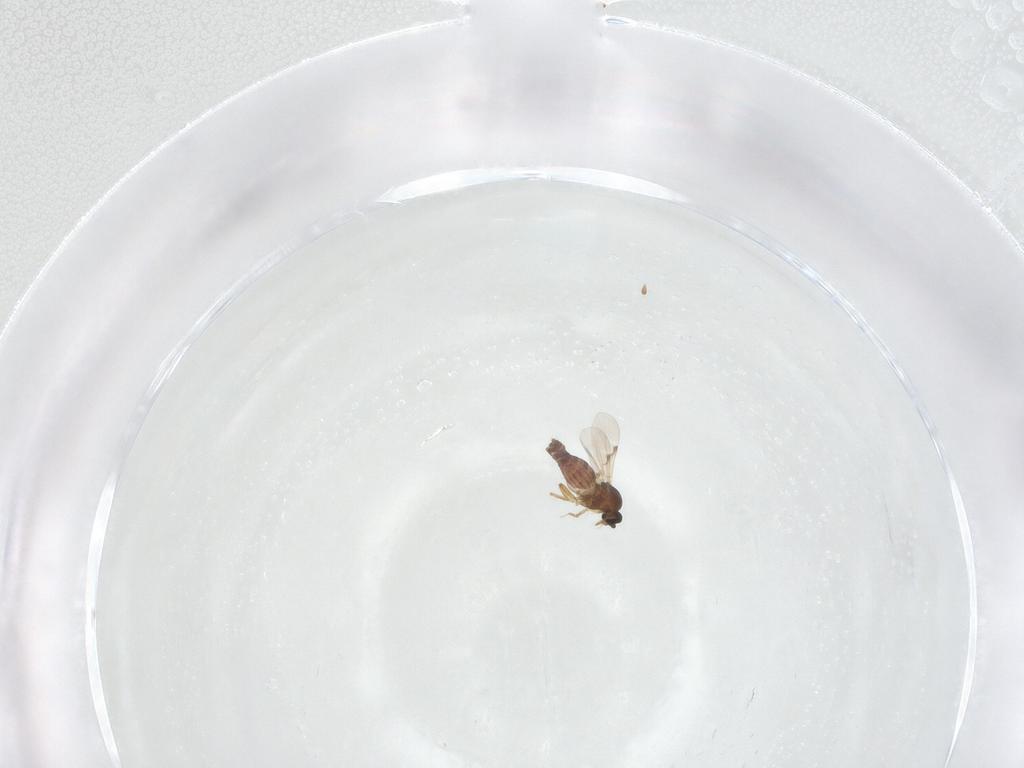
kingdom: Animalia
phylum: Arthropoda
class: Insecta
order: Diptera
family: Ceratopogonidae
